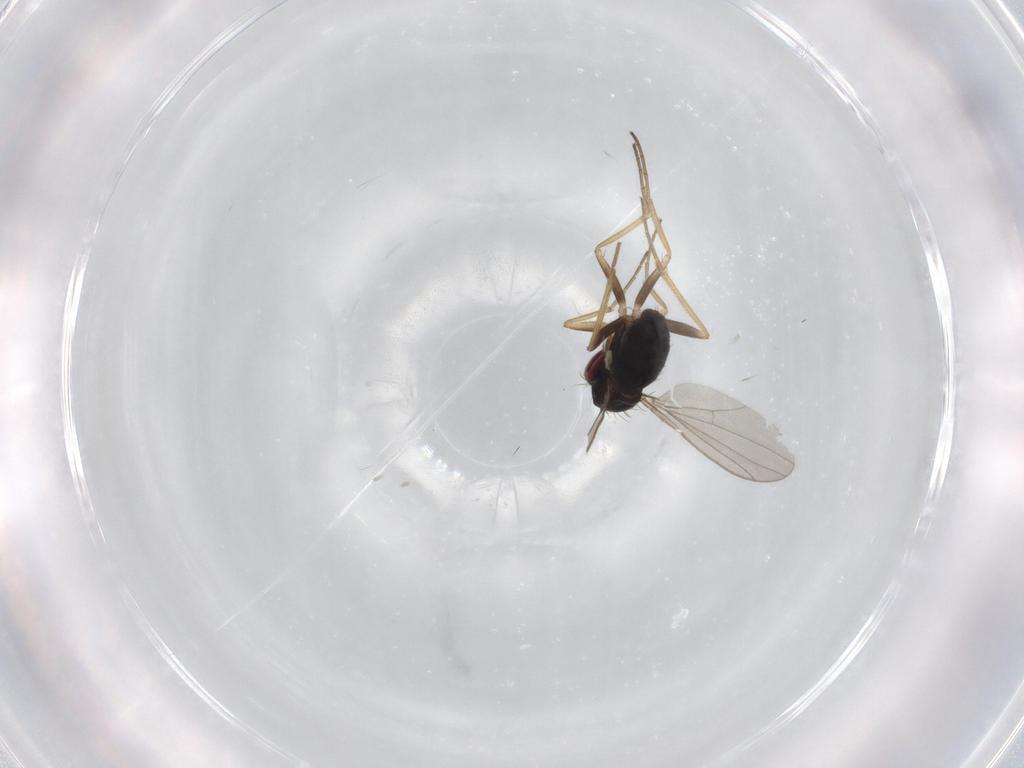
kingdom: Animalia
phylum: Arthropoda
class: Insecta
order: Diptera
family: Dolichopodidae
